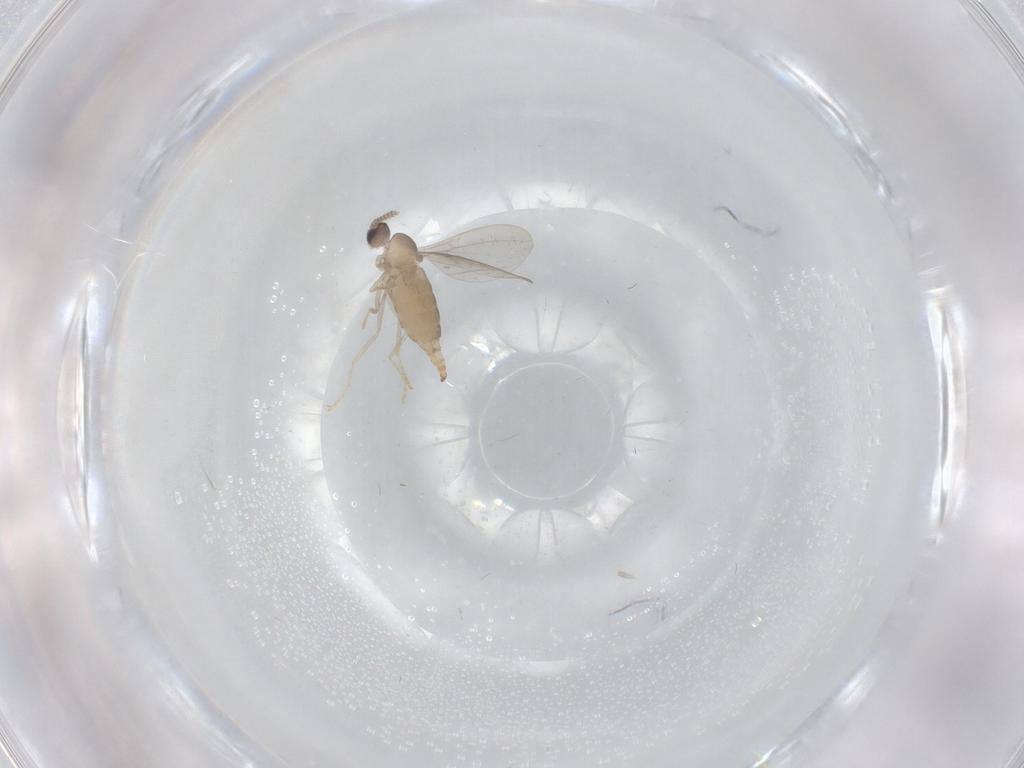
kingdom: Animalia
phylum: Arthropoda
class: Insecta
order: Diptera
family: Cecidomyiidae
